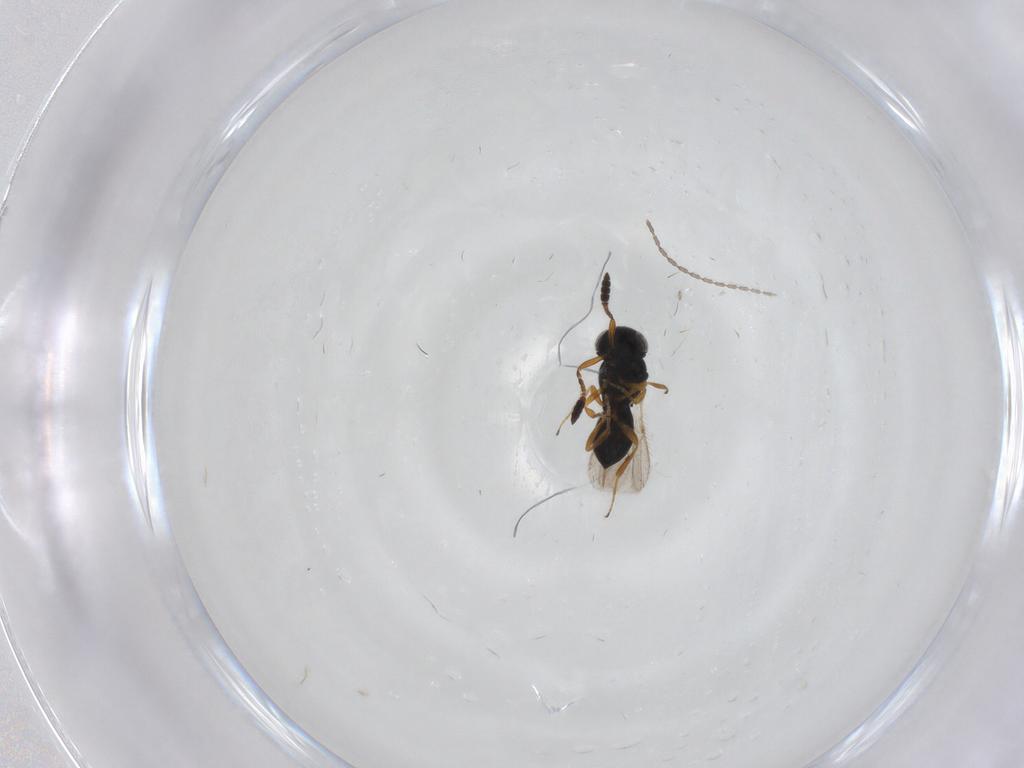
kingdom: Animalia
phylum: Arthropoda
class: Insecta
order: Hymenoptera
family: Scelionidae
